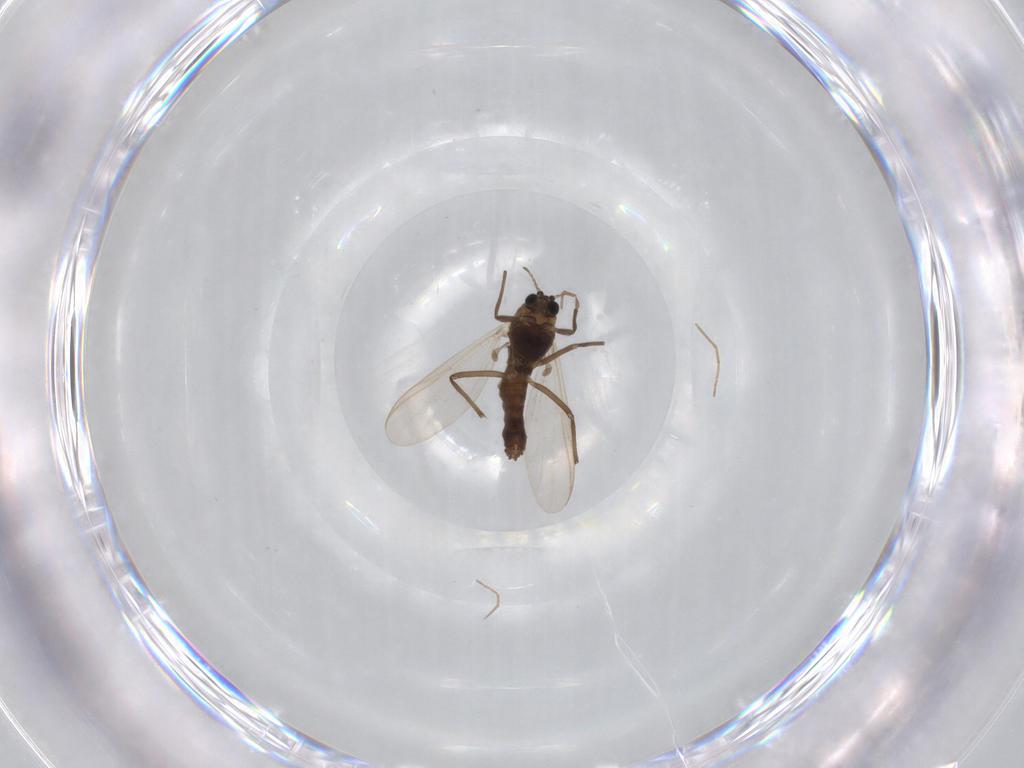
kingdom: Animalia
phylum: Arthropoda
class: Insecta
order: Diptera
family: Chironomidae
